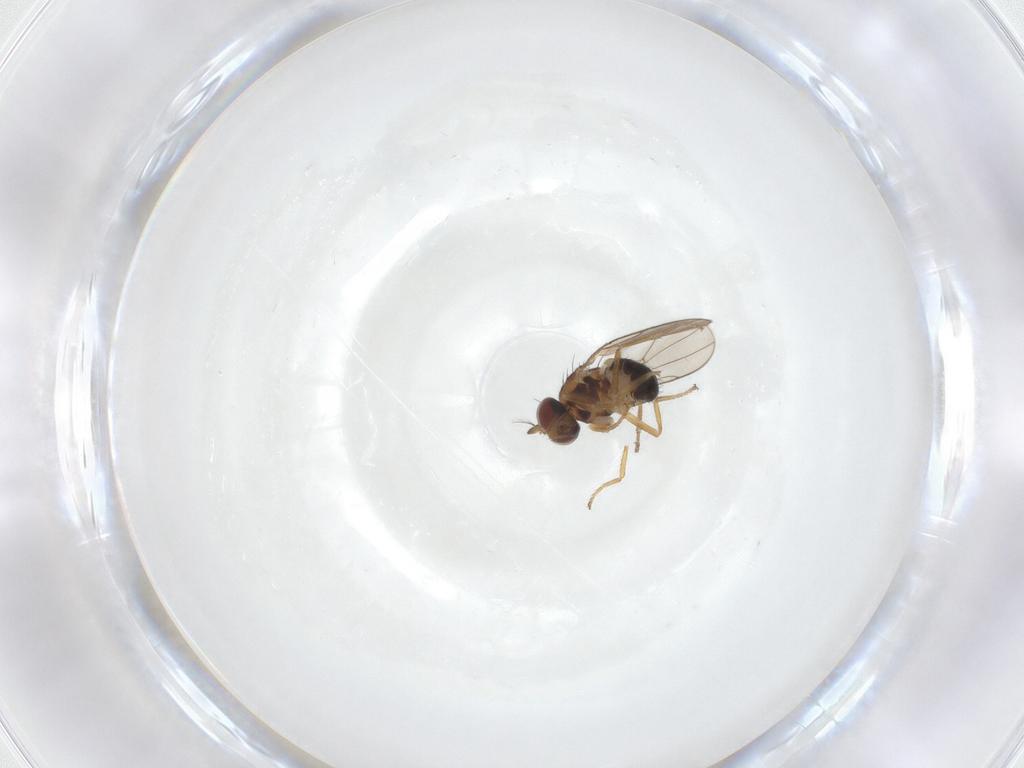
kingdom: Animalia
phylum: Arthropoda
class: Insecta
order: Diptera
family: Ephydridae
